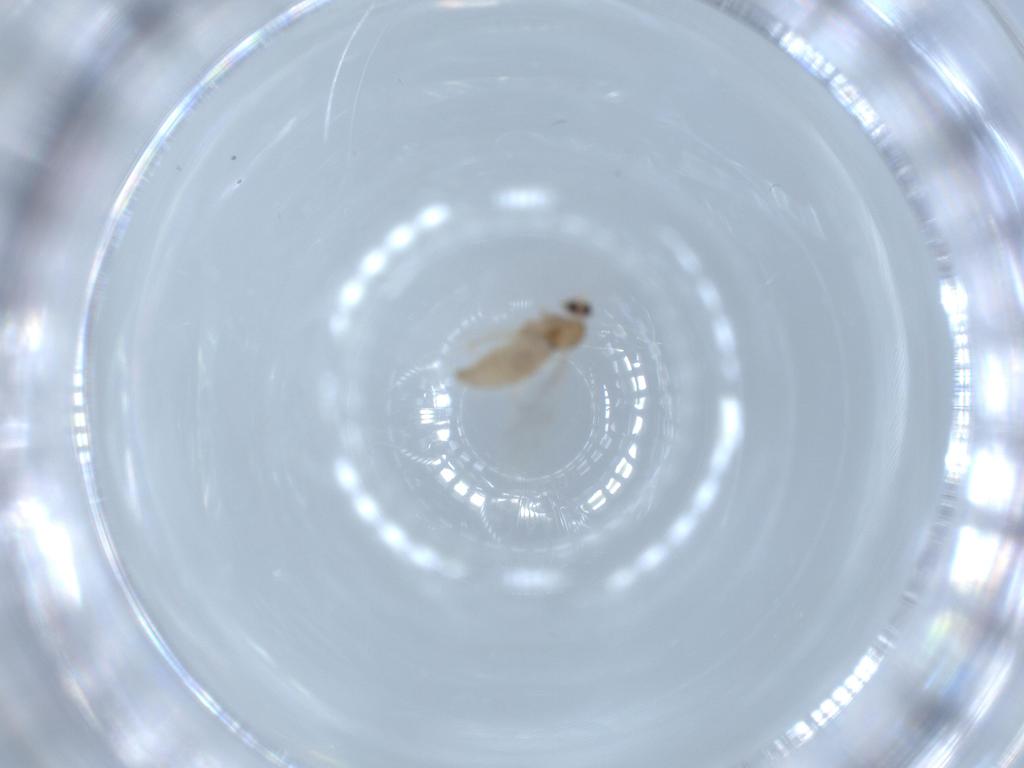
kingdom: Animalia
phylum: Arthropoda
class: Insecta
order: Diptera
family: Cecidomyiidae
